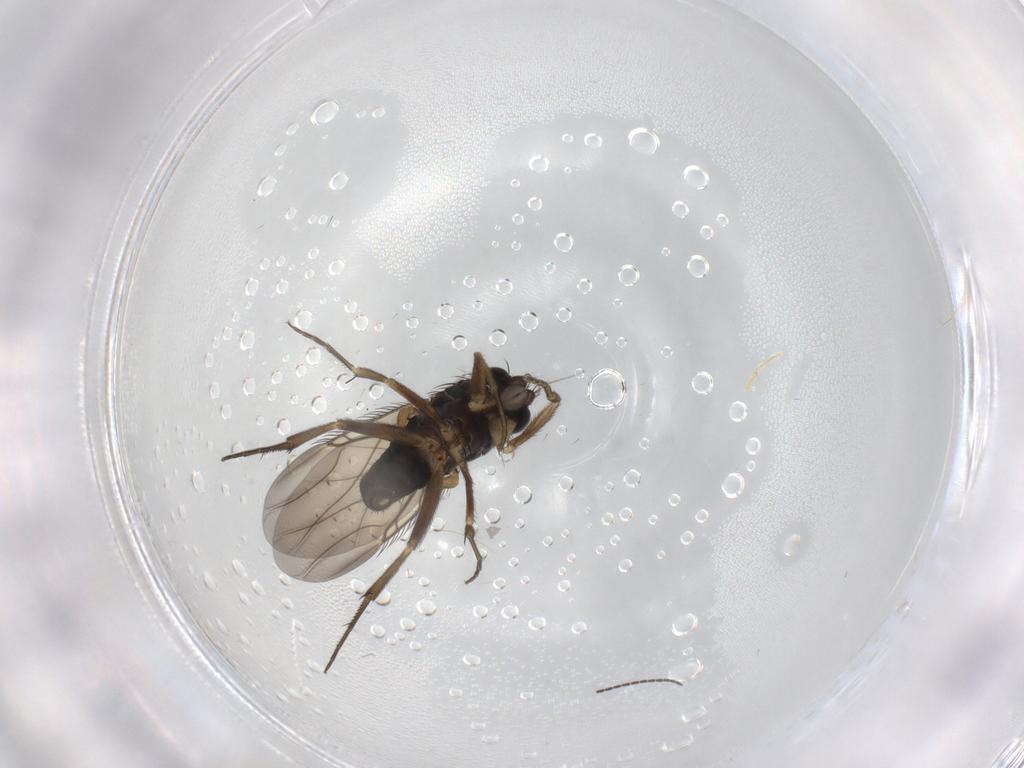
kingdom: Animalia
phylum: Arthropoda
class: Insecta
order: Diptera
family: Phoridae
